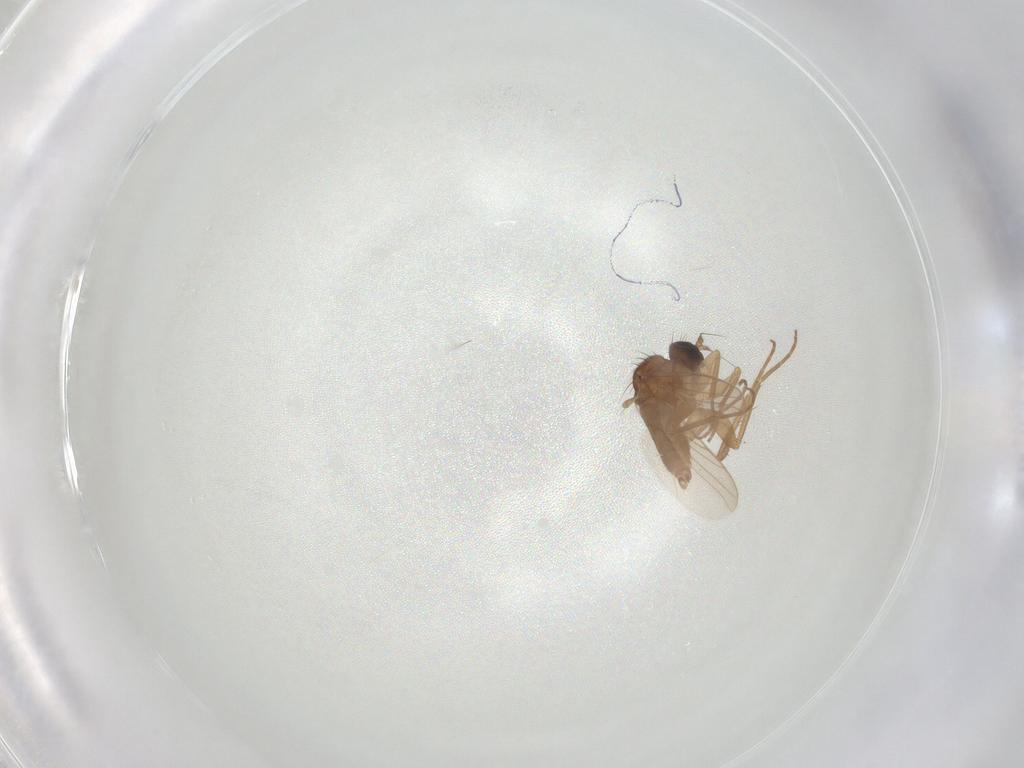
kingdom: Animalia
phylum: Arthropoda
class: Insecta
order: Diptera
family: Hybotidae
